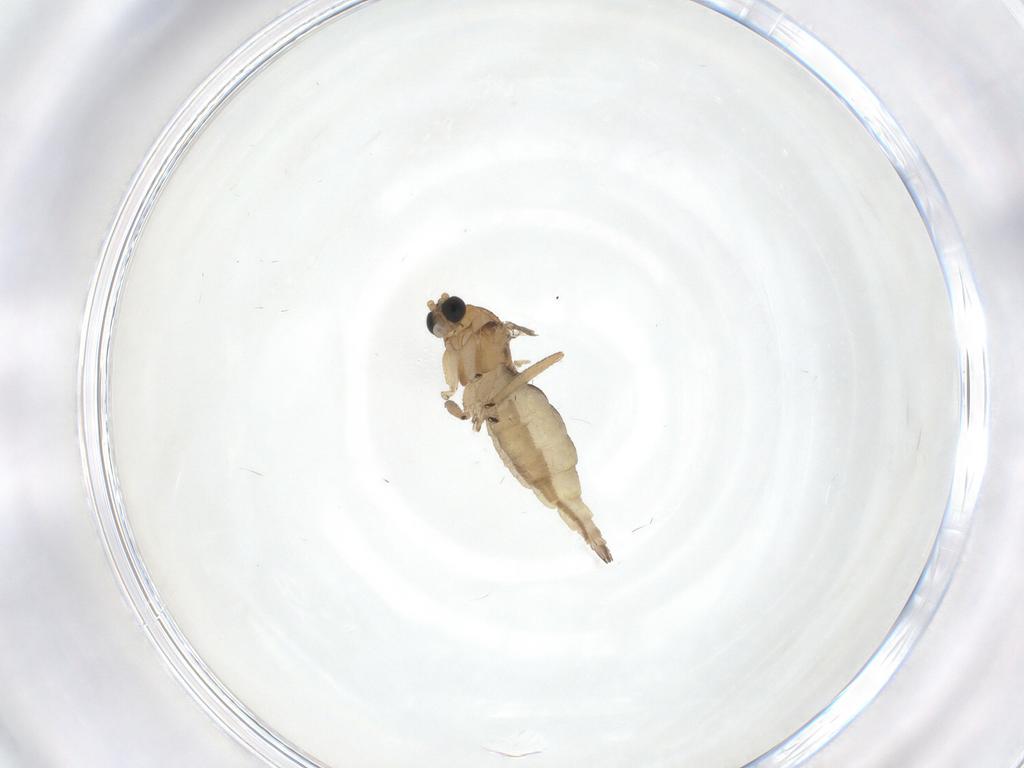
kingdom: Animalia
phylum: Arthropoda
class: Insecta
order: Diptera
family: Sciaridae
